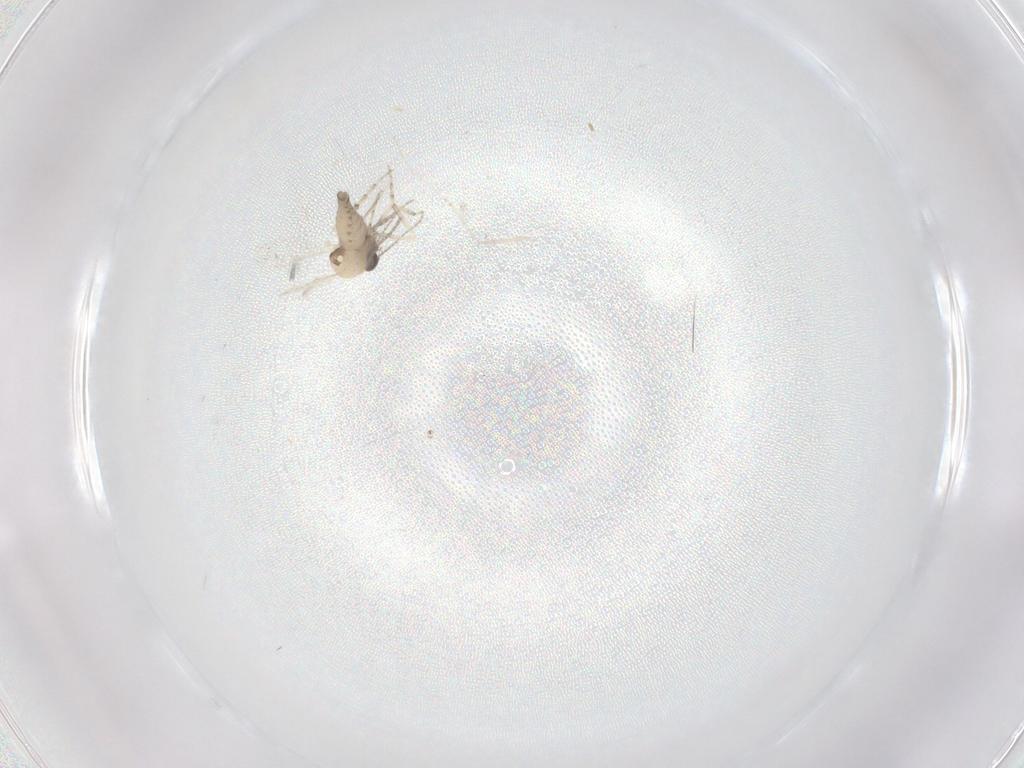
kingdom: Animalia
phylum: Arthropoda
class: Insecta
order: Diptera
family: Ceratopogonidae
